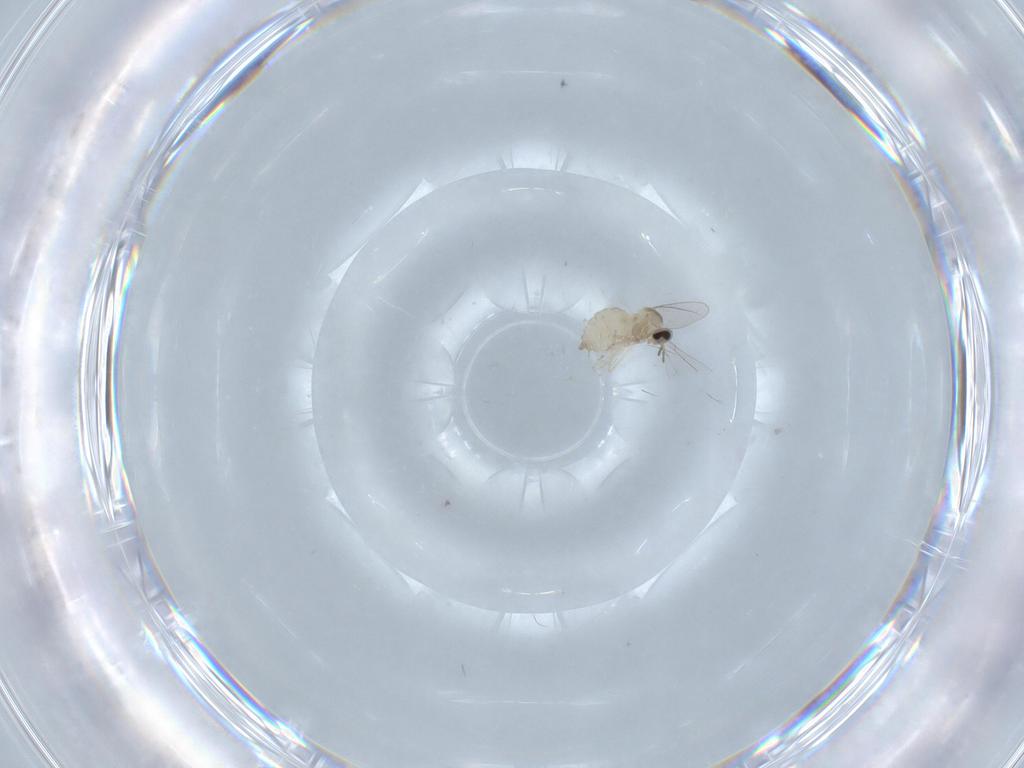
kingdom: Animalia
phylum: Arthropoda
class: Insecta
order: Diptera
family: Cecidomyiidae
